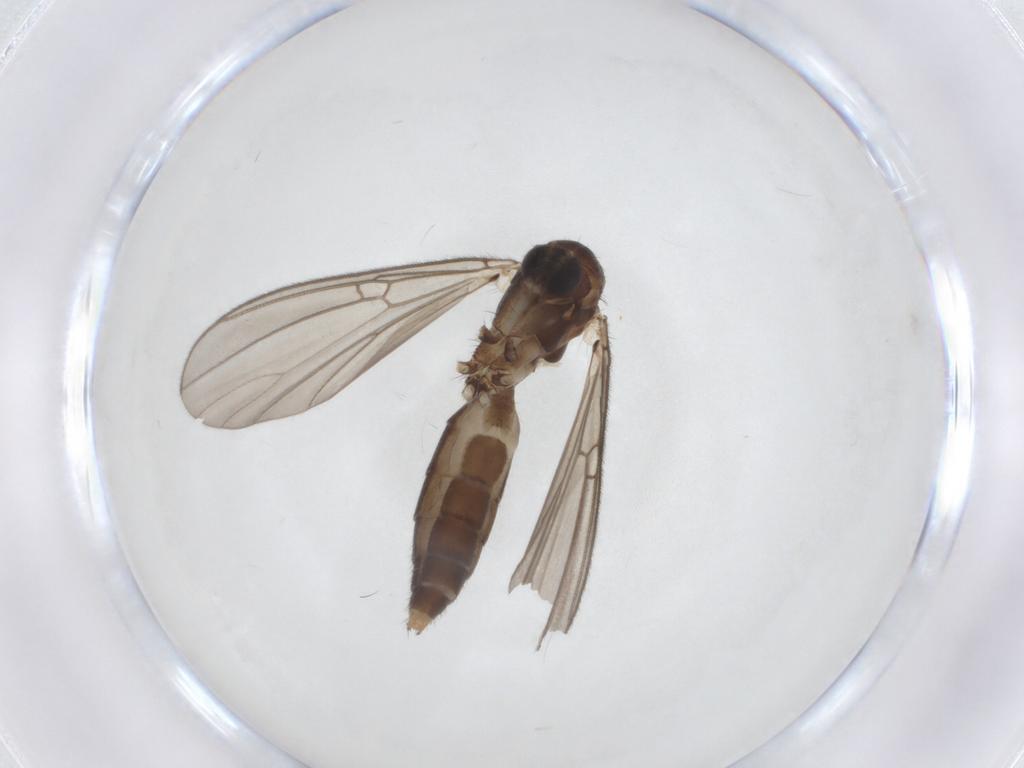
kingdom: Animalia
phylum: Arthropoda
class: Insecta
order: Diptera
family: Mycetophilidae
